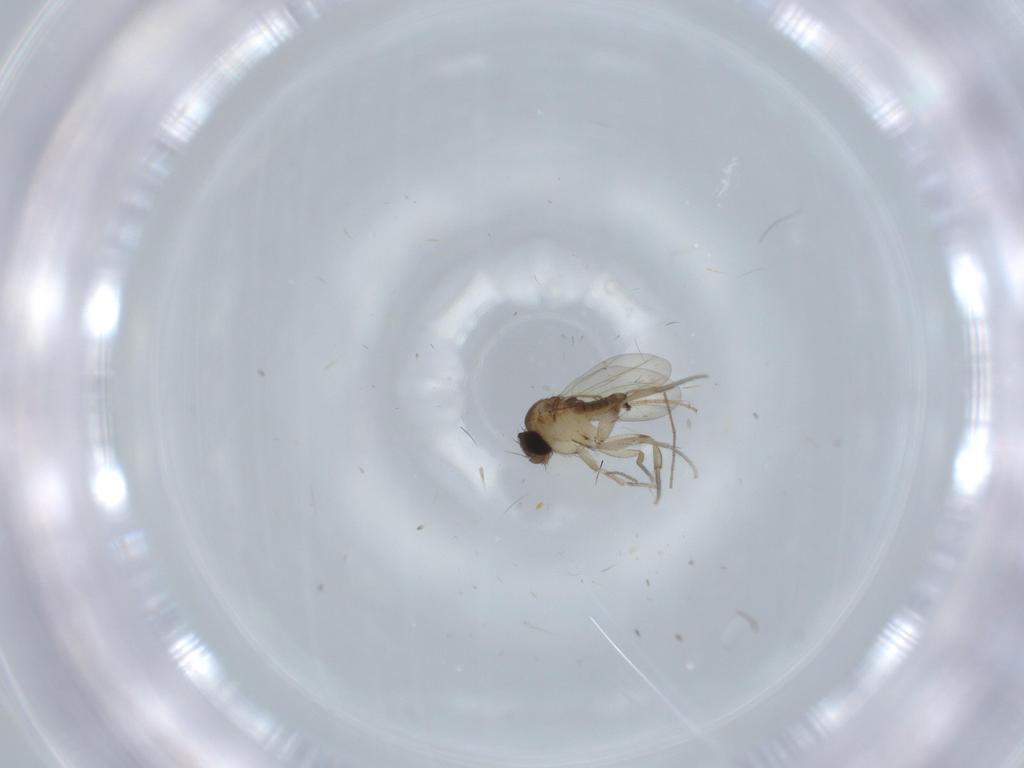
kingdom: Animalia
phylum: Arthropoda
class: Insecta
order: Diptera
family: Phoridae
